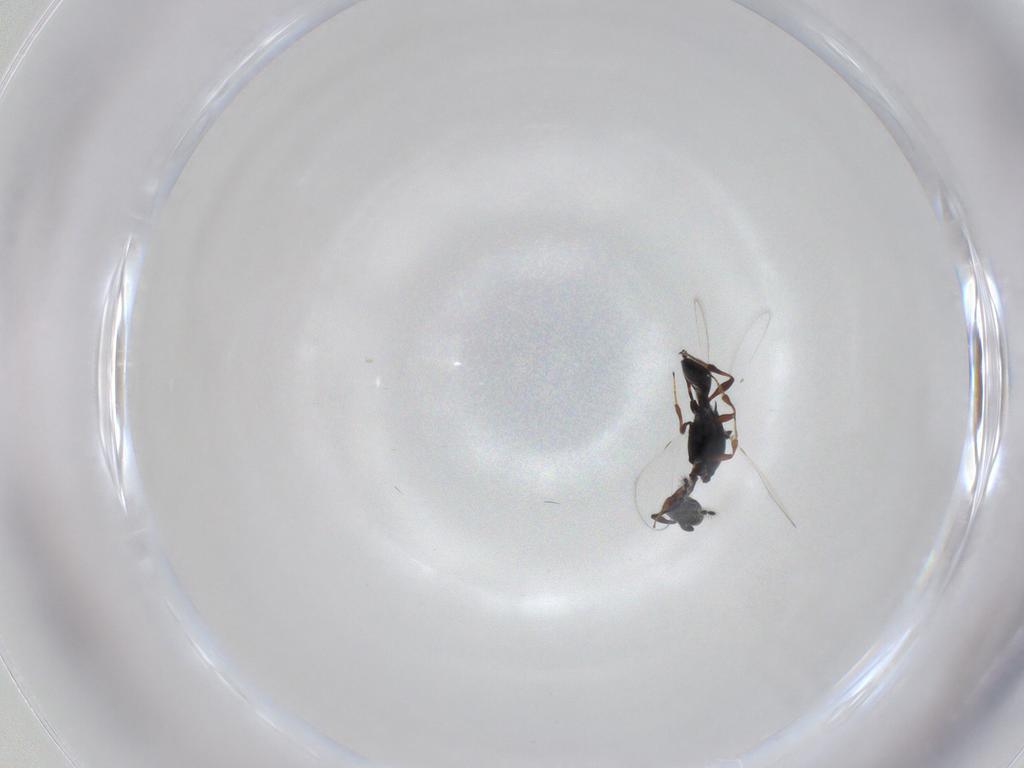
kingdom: Animalia
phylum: Arthropoda
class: Insecta
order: Hymenoptera
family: Platygastridae
